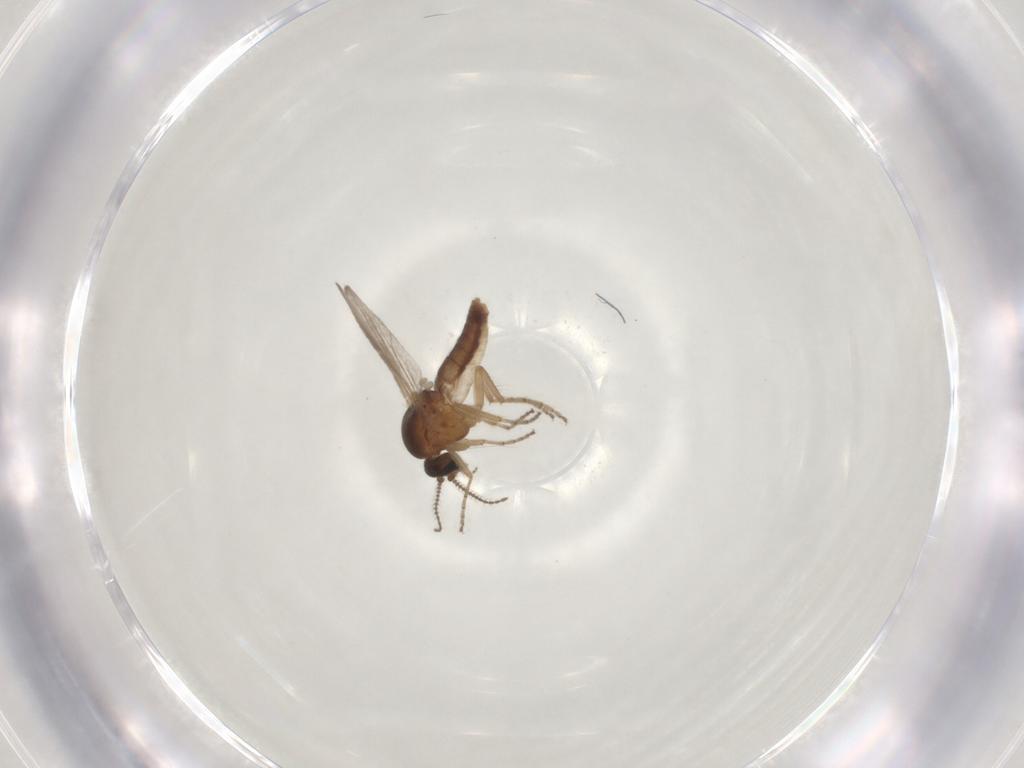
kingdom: Animalia
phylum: Arthropoda
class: Insecta
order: Diptera
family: Ceratopogonidae
